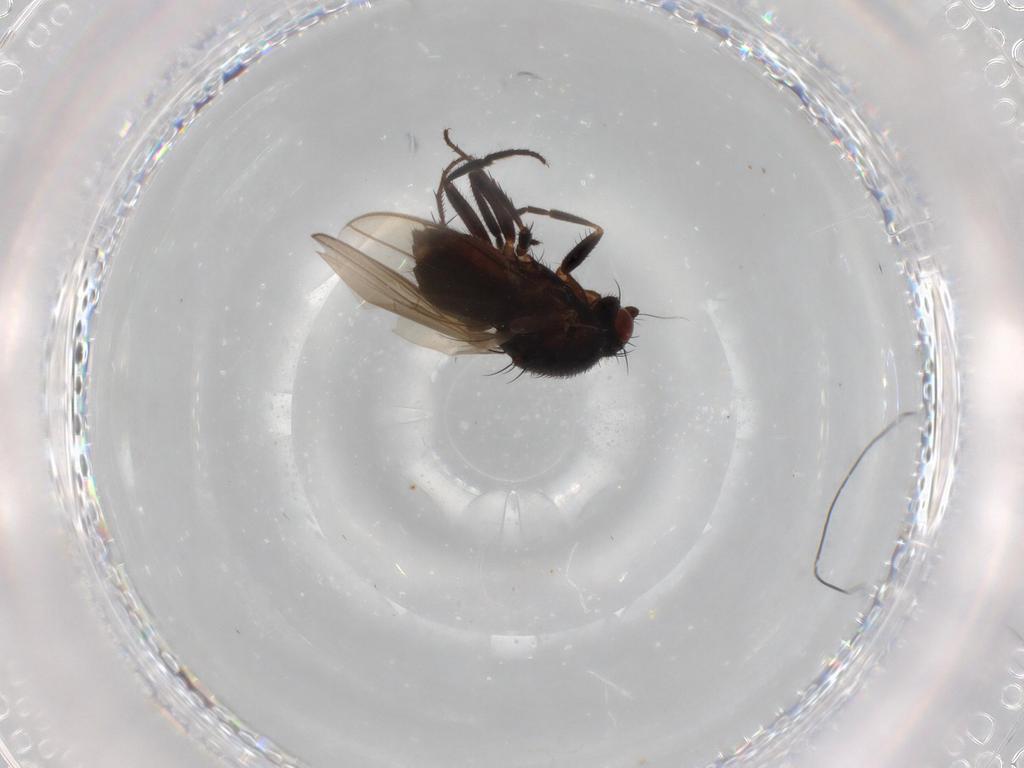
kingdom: Animalia
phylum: Arthropoda
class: Insecta
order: Diptera
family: Sphaeroceridae
